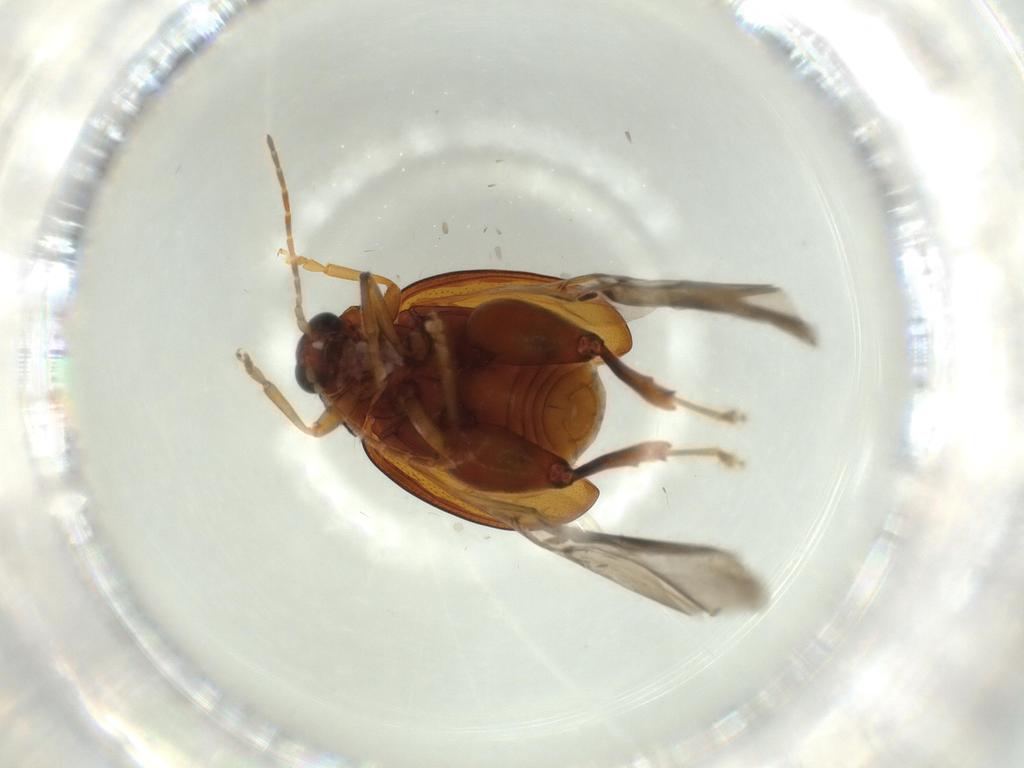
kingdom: Animalia
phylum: Arthropoda
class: Insecta
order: Coleoptera
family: Chrysomelidae
